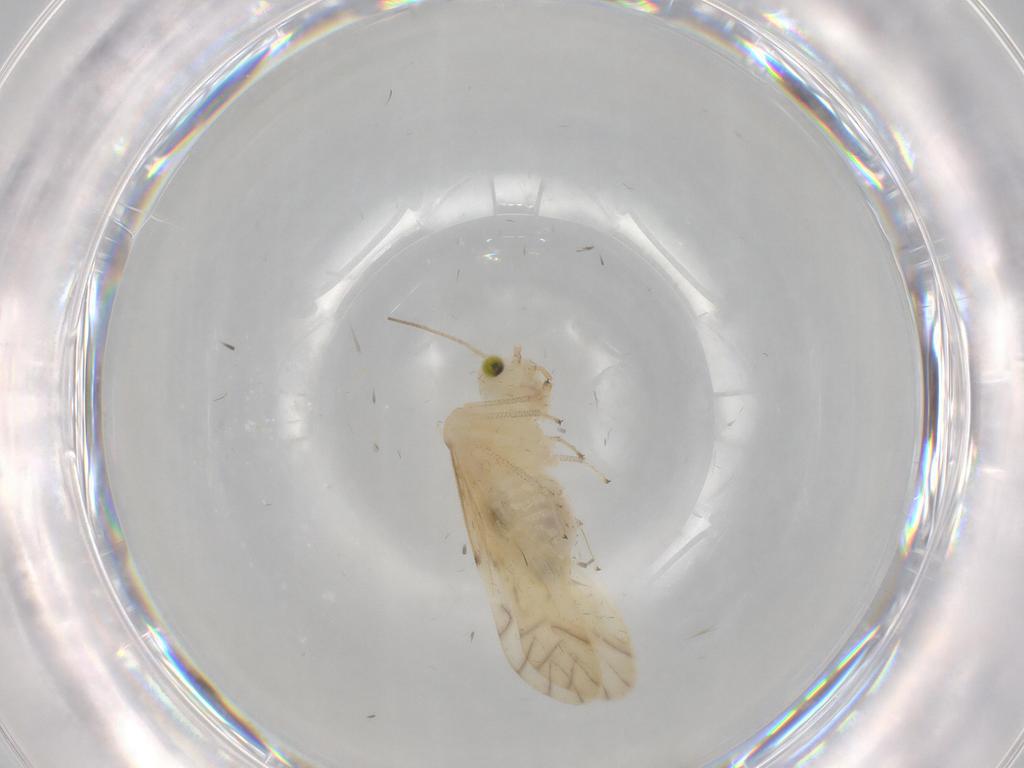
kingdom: Animalia
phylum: Arthropoda
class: Insecta
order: Psocodea
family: Caeciliusidae
